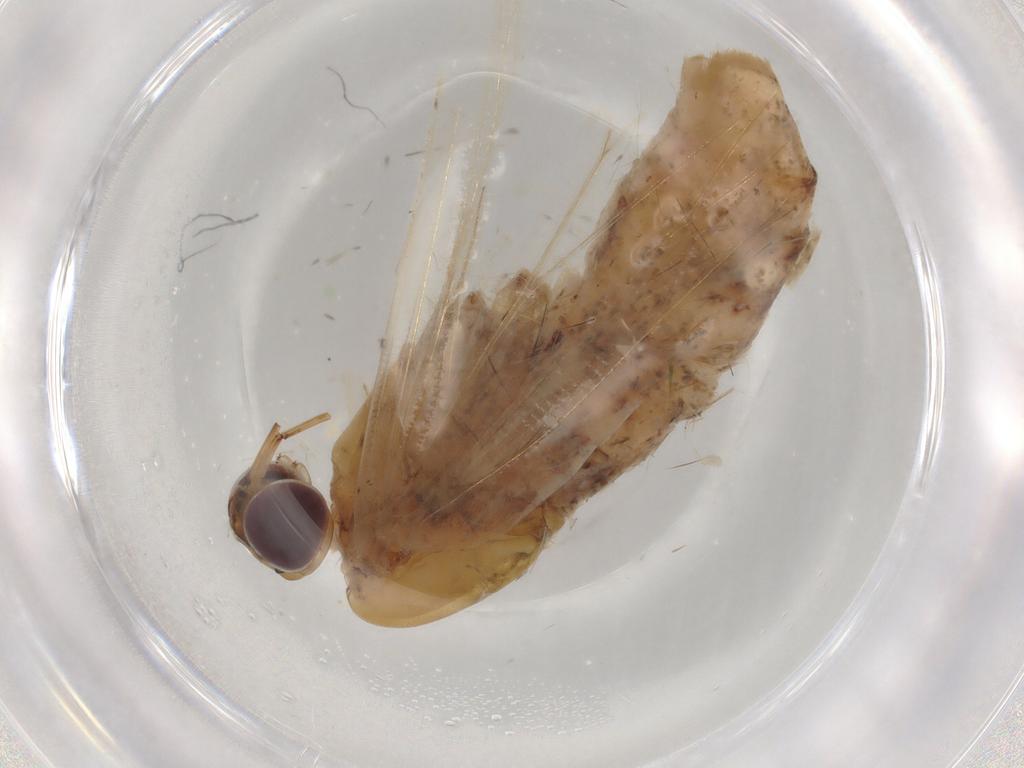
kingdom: Animalia
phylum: Arthropoda
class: Insecta
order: Lepidoptera
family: Noctuidae
